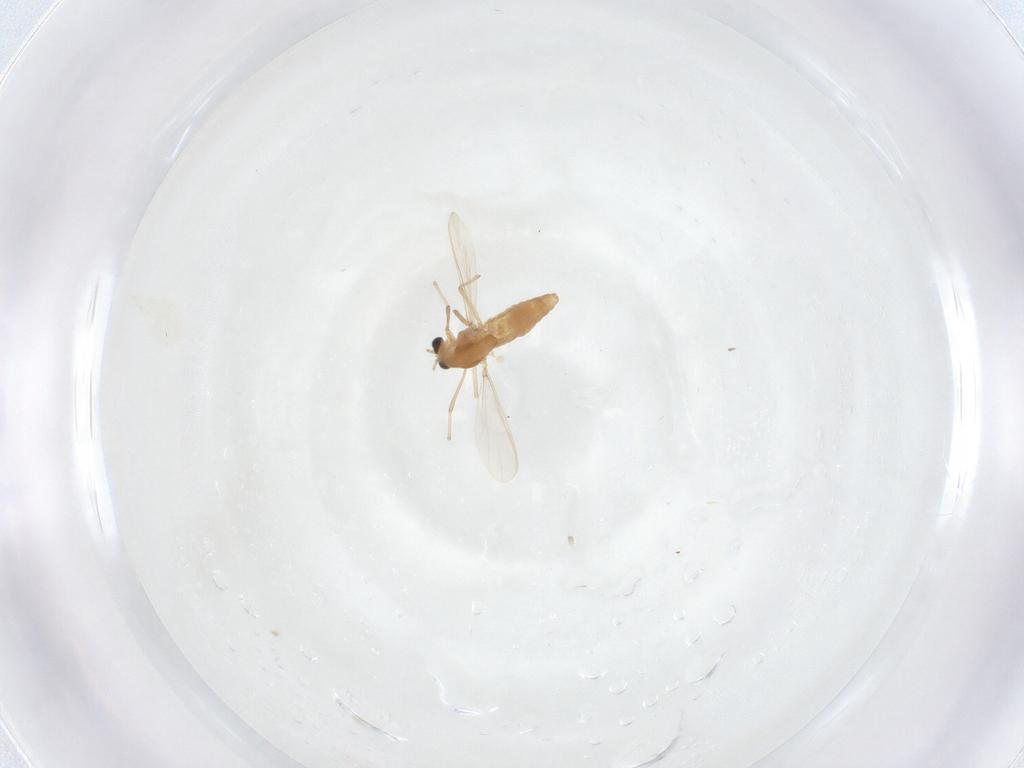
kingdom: Animalia
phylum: Arthropoda
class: Insecta
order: Diptera
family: Chironomidae
